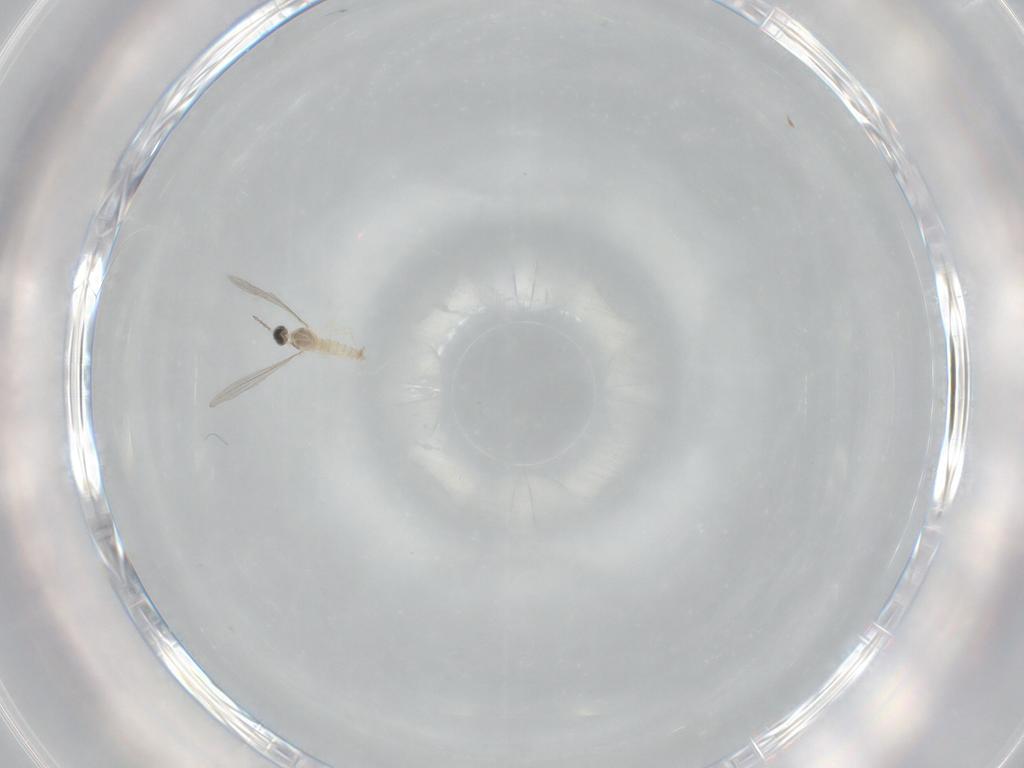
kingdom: Animalia
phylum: Arthropoda
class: Insecta
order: Diptera
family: Cecidomyiidae
